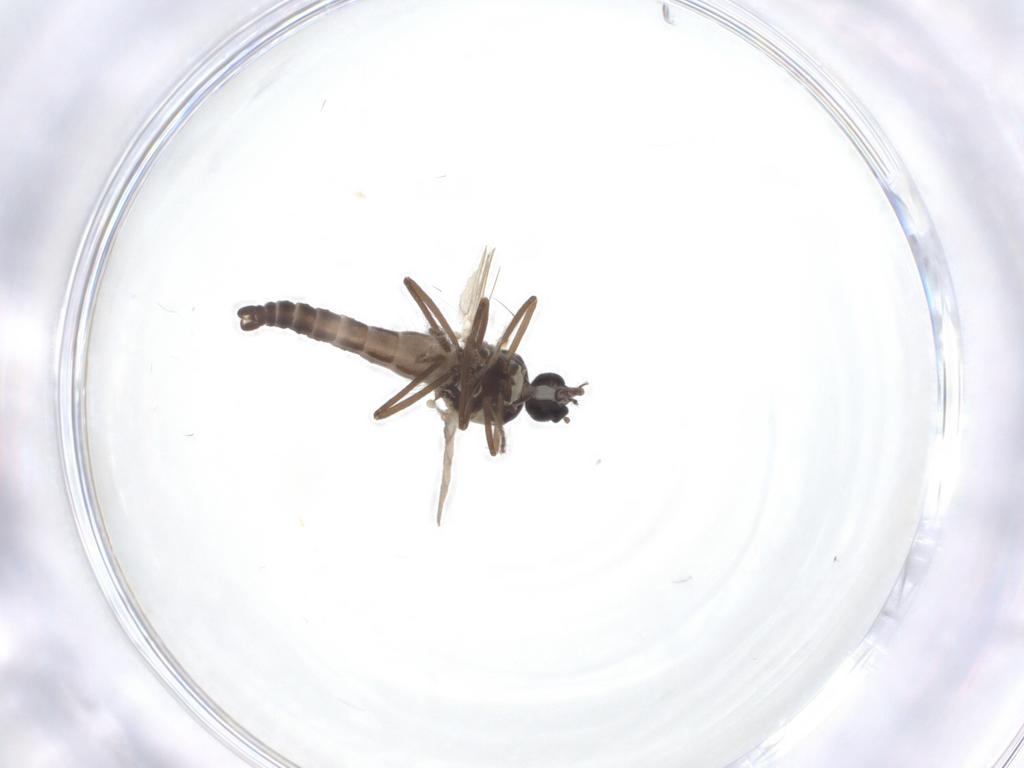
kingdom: Animalia
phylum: Arthropoda
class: Insecta
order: Diptera
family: Ceratopogonidae
